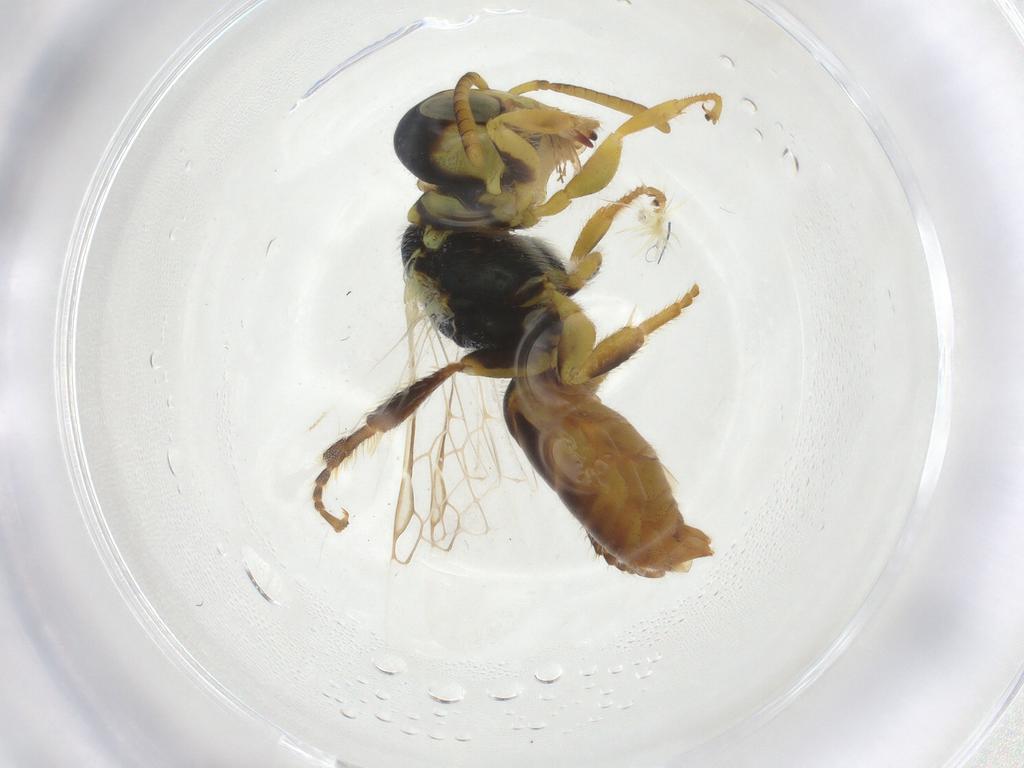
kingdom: Animalia
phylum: Arthropoda
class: Insecta
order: Hymenoptera
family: Andrenidae
